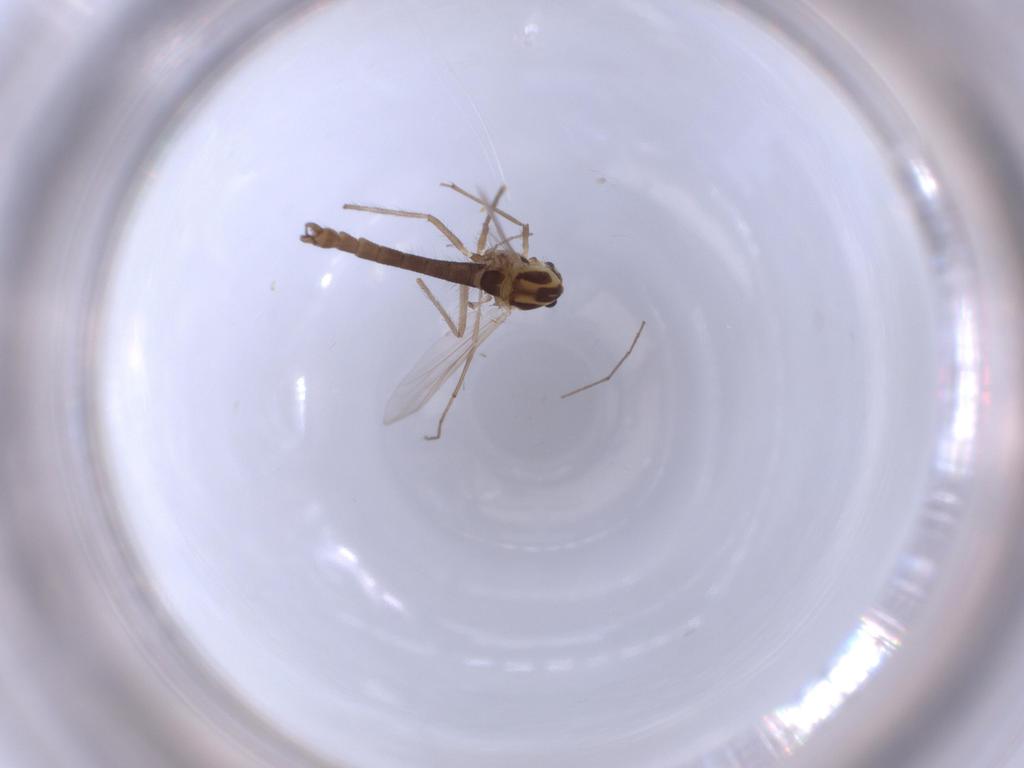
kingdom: Animalia
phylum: Arthropoda
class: Insecta
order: Diptera
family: Chironomidae
